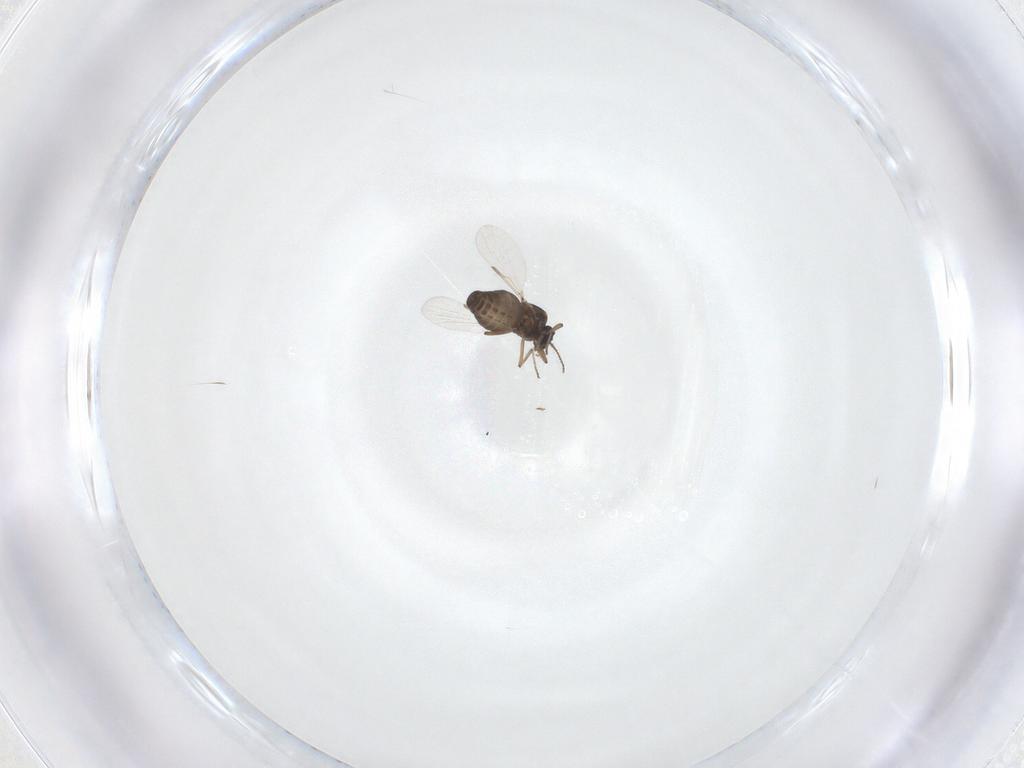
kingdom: Animalia
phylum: Arthropoda
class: Insecta
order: Diptera
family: Ceratopogonidae
